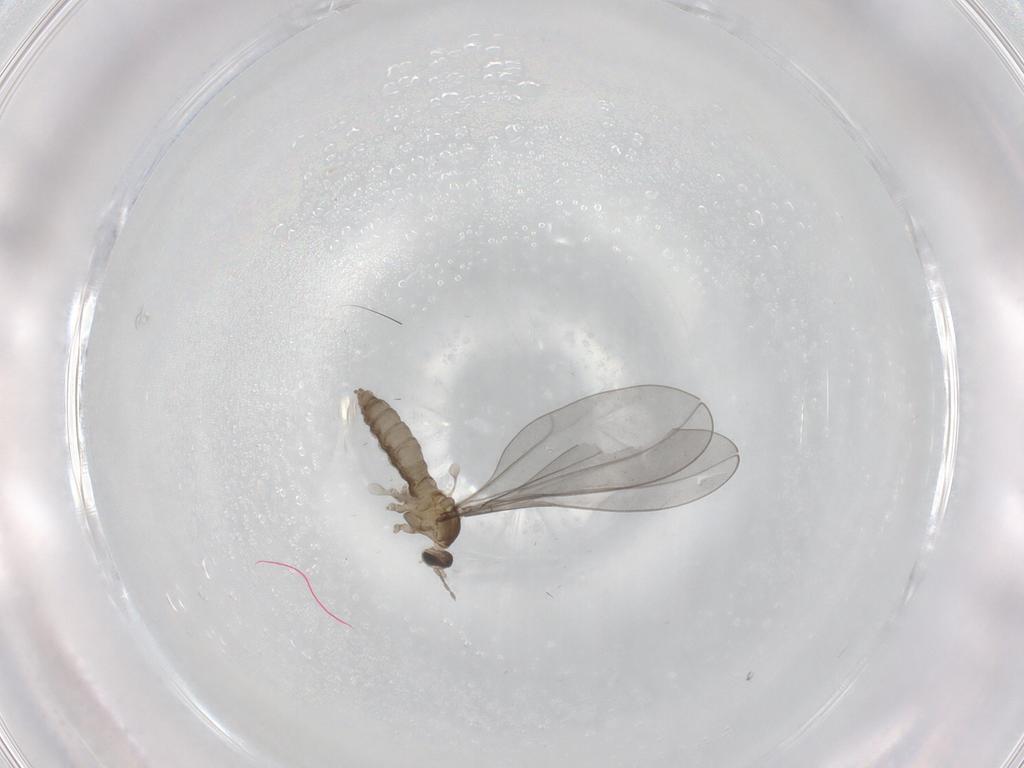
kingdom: Animalia
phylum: Arthropoda
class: Insecta
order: Diptera
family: Cecidomyiidae
